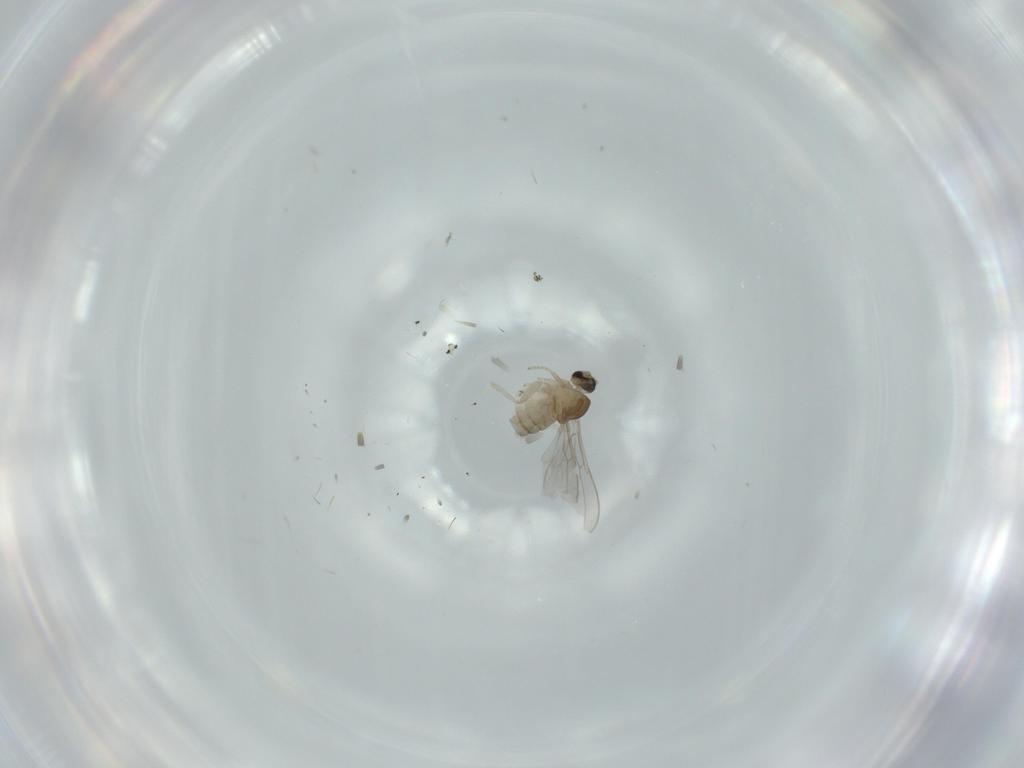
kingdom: Animalia
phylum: Arthropoda
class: Insecta
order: Diptera
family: Cecidomyiidae
